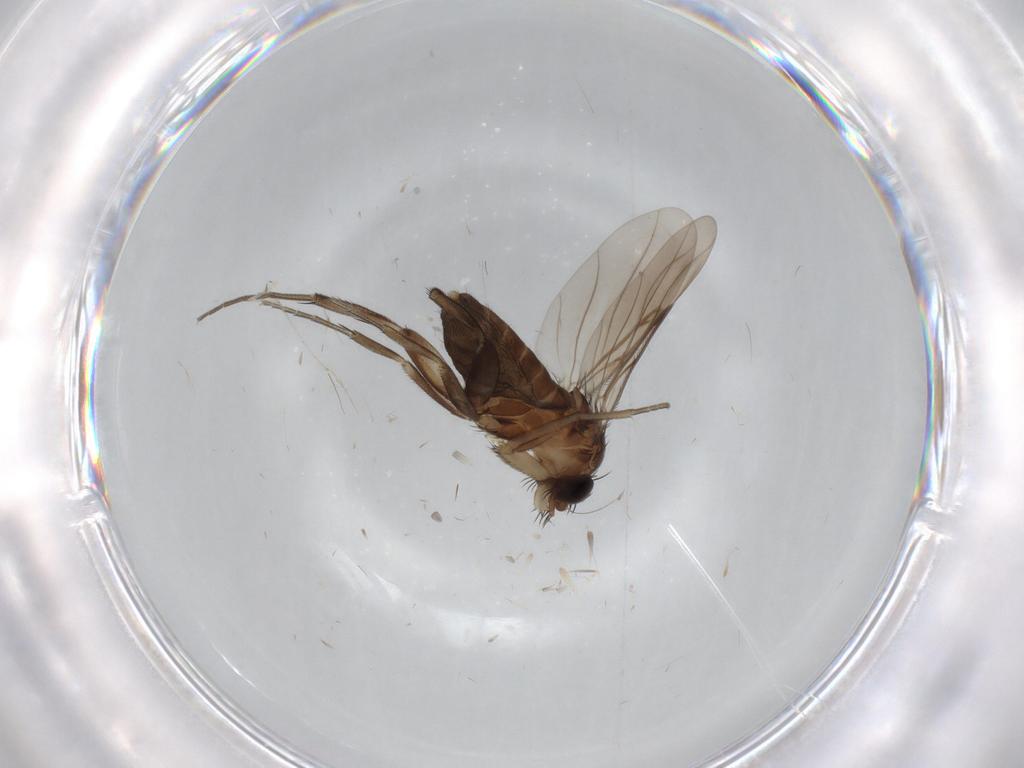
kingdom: Animalia
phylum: Arthropoda
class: Insecta
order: Diptera
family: Phoridae
